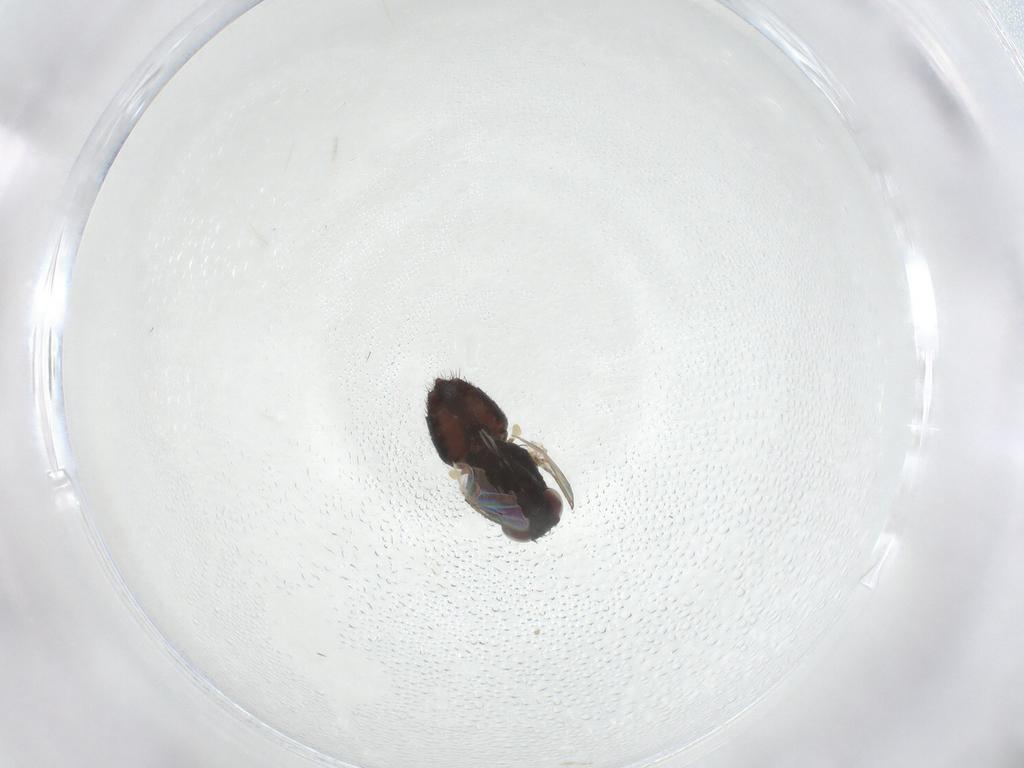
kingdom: Animalia
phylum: Arthropoda
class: Insecta
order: Diptera
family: Milichiidae
